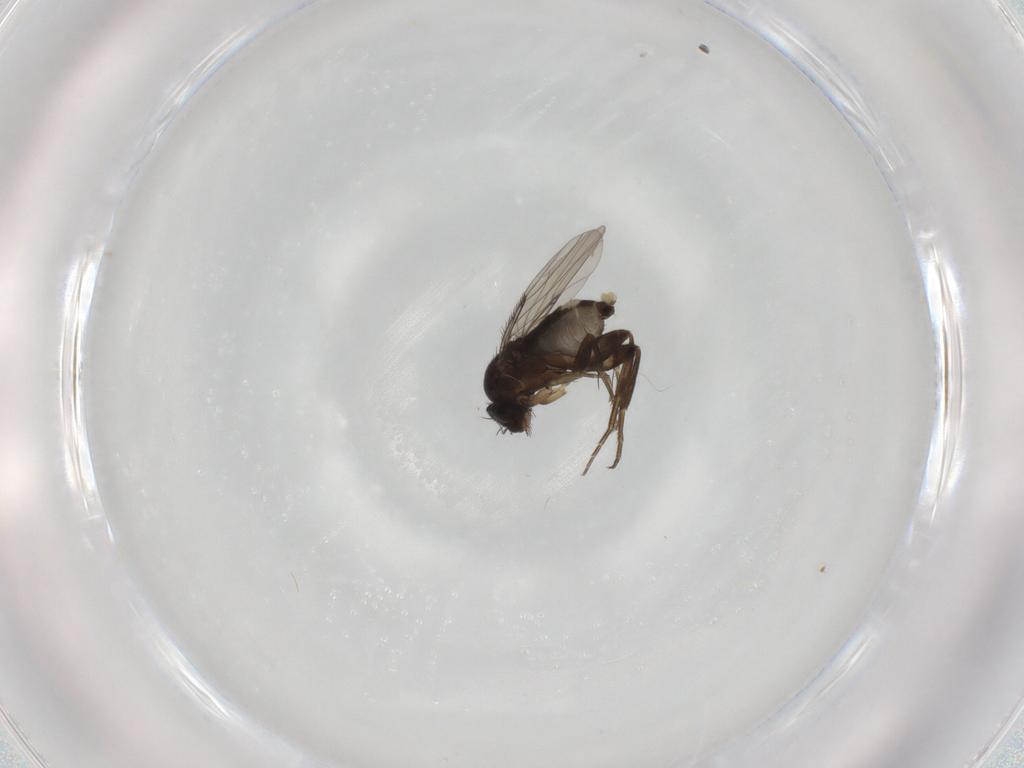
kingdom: Animalia
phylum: Arthropoda
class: Insecta
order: Diptera
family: Phoridae
